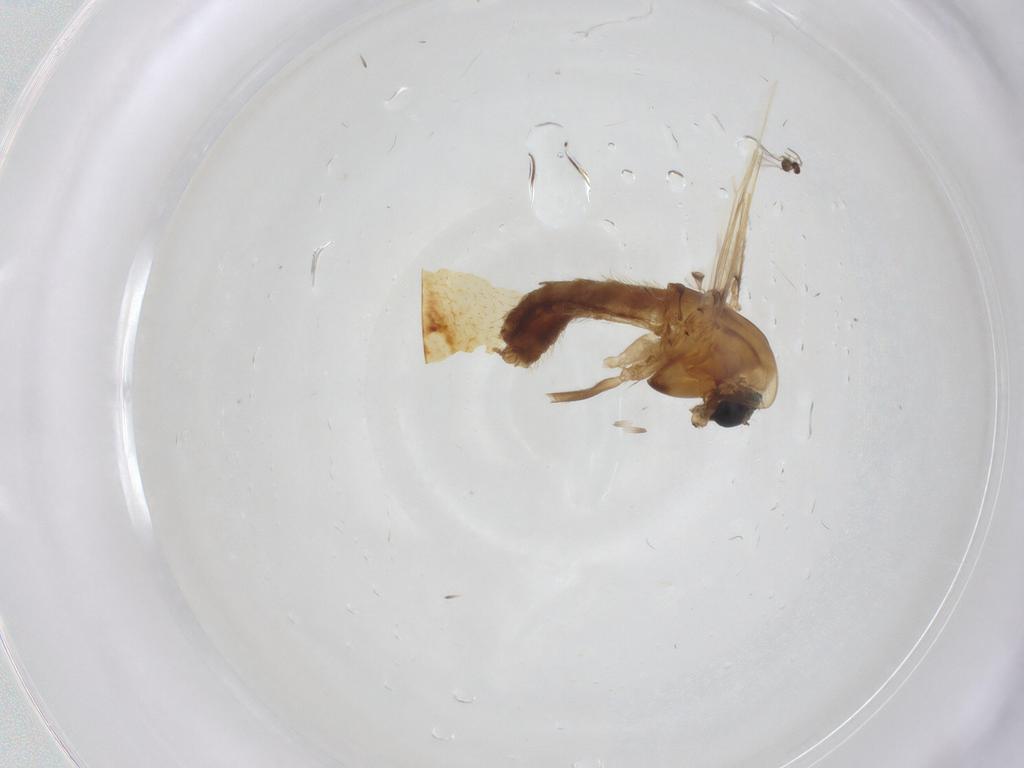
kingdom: Animalia
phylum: Arthropoda
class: Insecta
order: Diptera
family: Chironomidae
